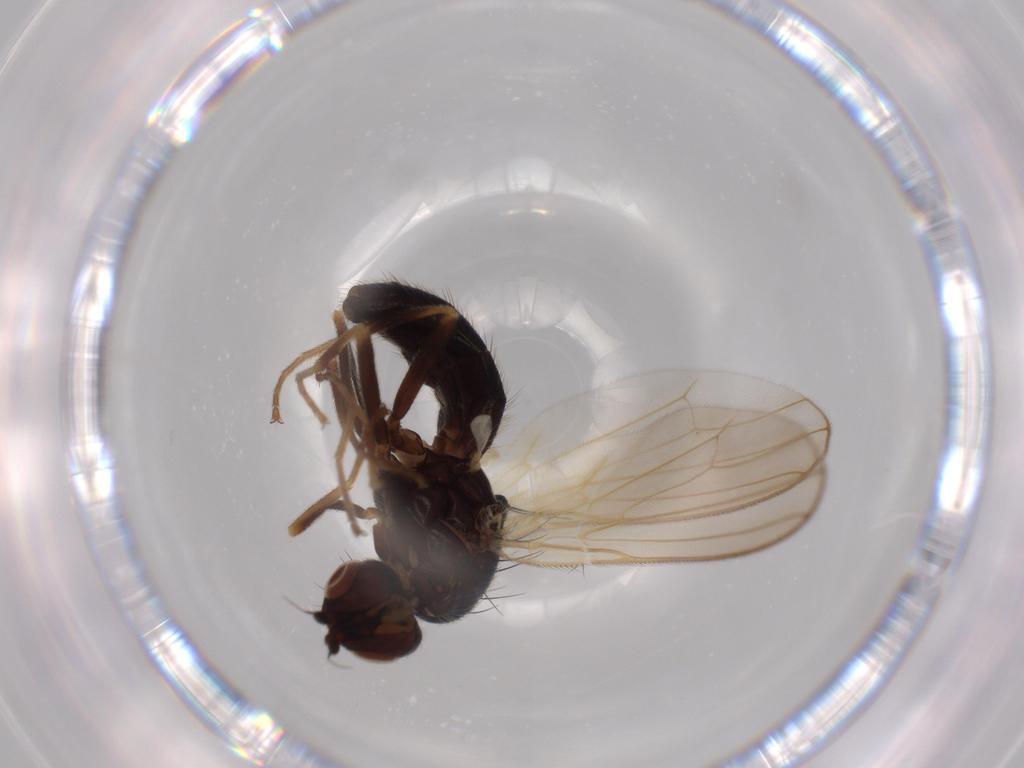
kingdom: Animalia
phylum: Arthropoda
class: Insecta
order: Diptera
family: Psilidae
